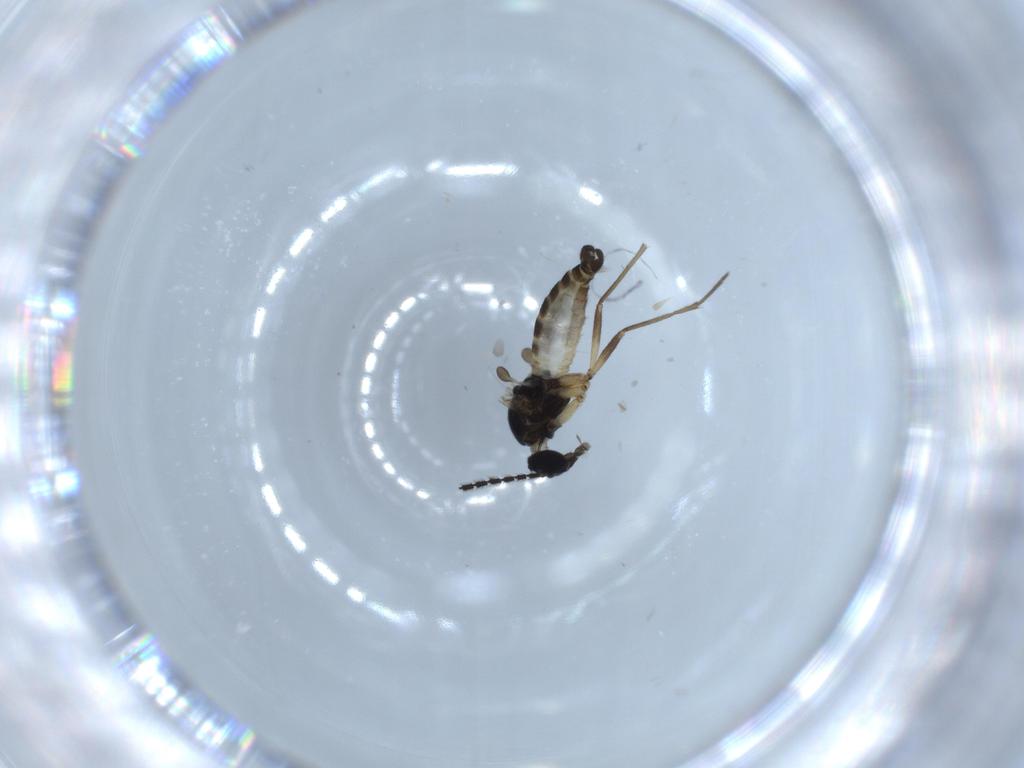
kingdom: Animalia
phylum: Arthropoda
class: Insecta
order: Diptera
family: Sciaridae
